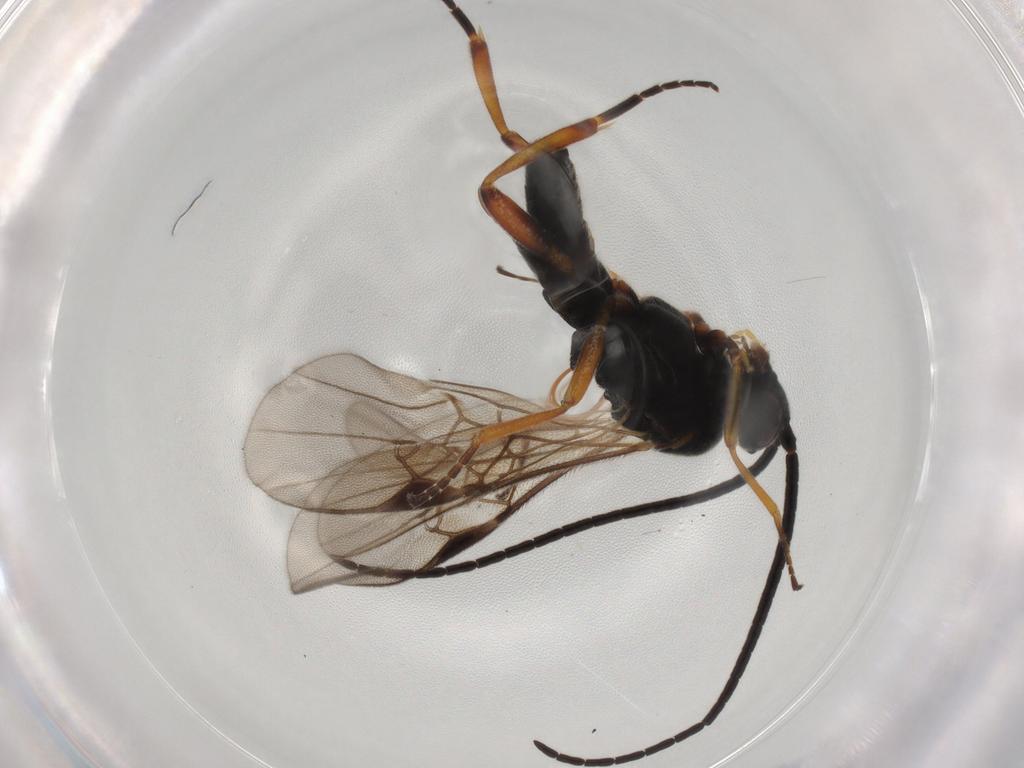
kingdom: Animalia
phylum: Arthropoda
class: Insecta
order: Hymenoptera
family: Braconidae
